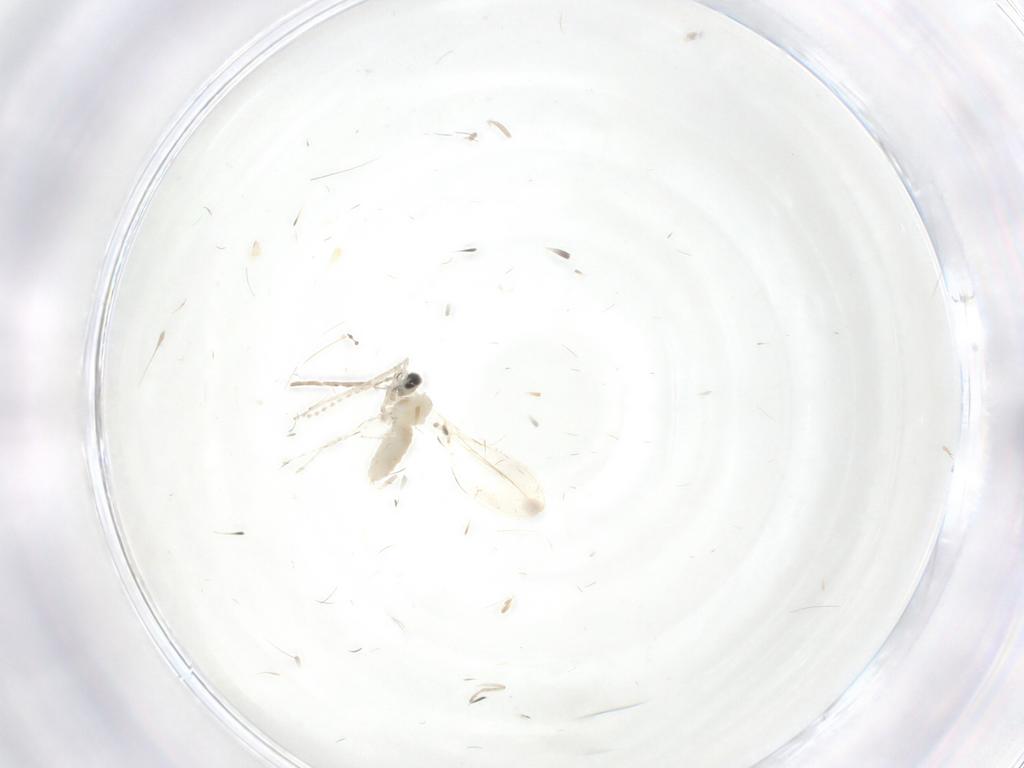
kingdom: Animalia
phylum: Arthropoda
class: Insecta
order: Diptera
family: Cecidomyiidae
